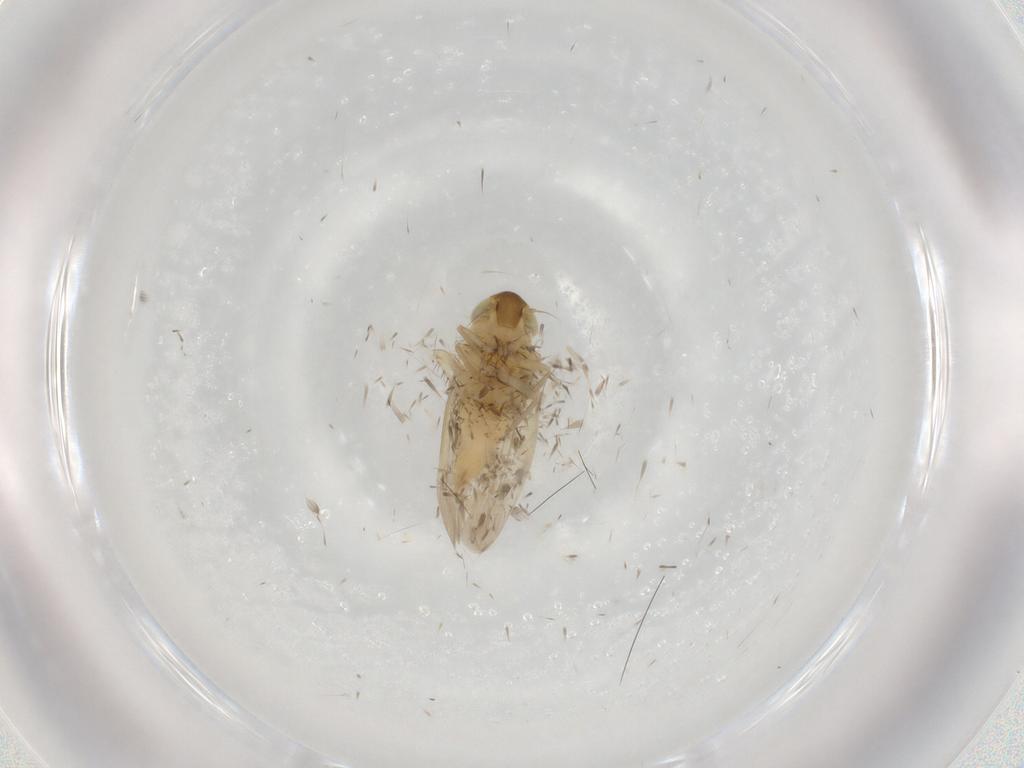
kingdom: Animalia
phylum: Arthropoda
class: Insecta
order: Hemiptera
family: Cicadellidae
